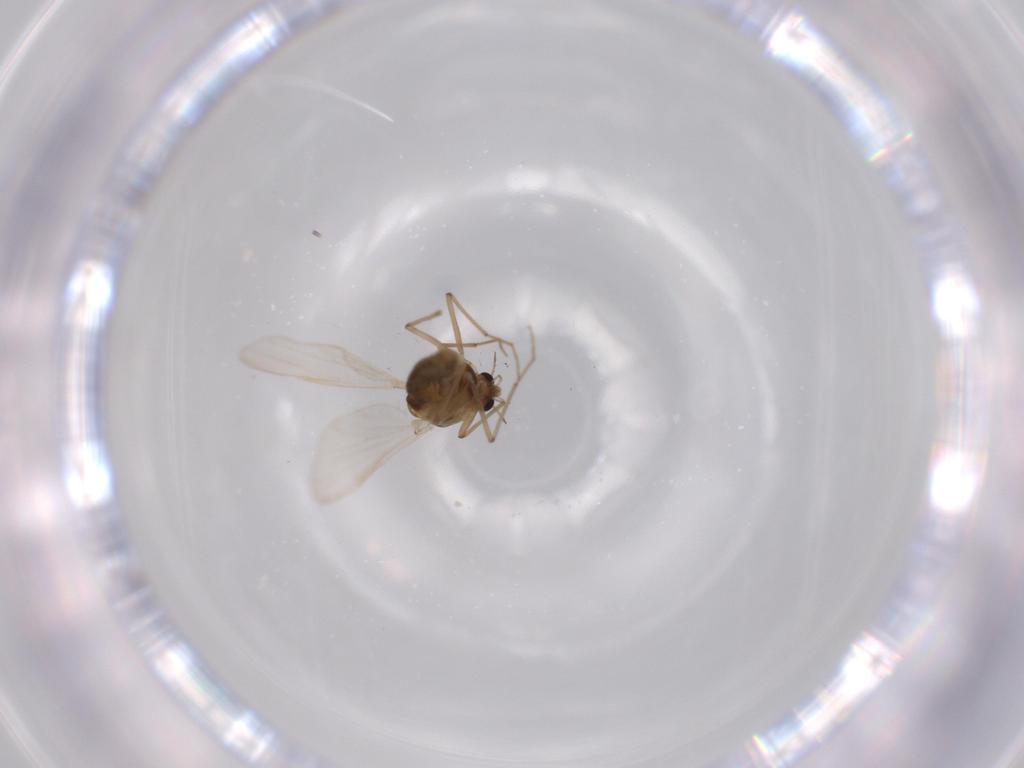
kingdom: Animalia
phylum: Arthropoda
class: Insecta
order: Diptera
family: Chironomidae
